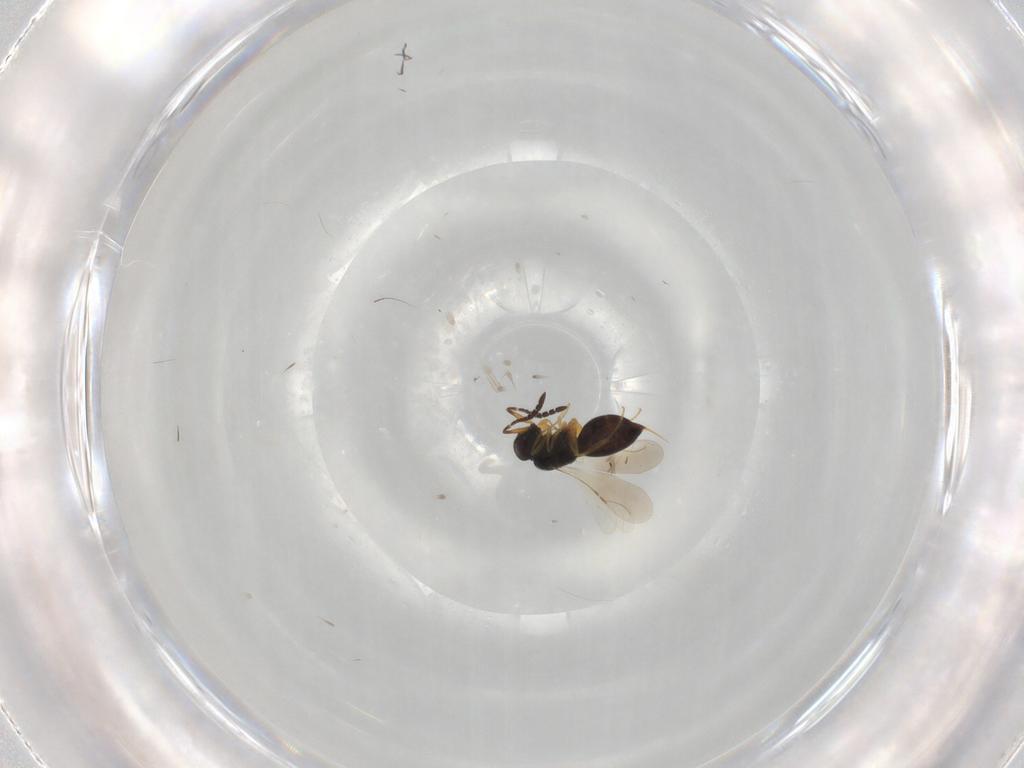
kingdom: Animalia
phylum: Arthropoda
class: Insecta
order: Hymenoptera
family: Ceraphronidae
